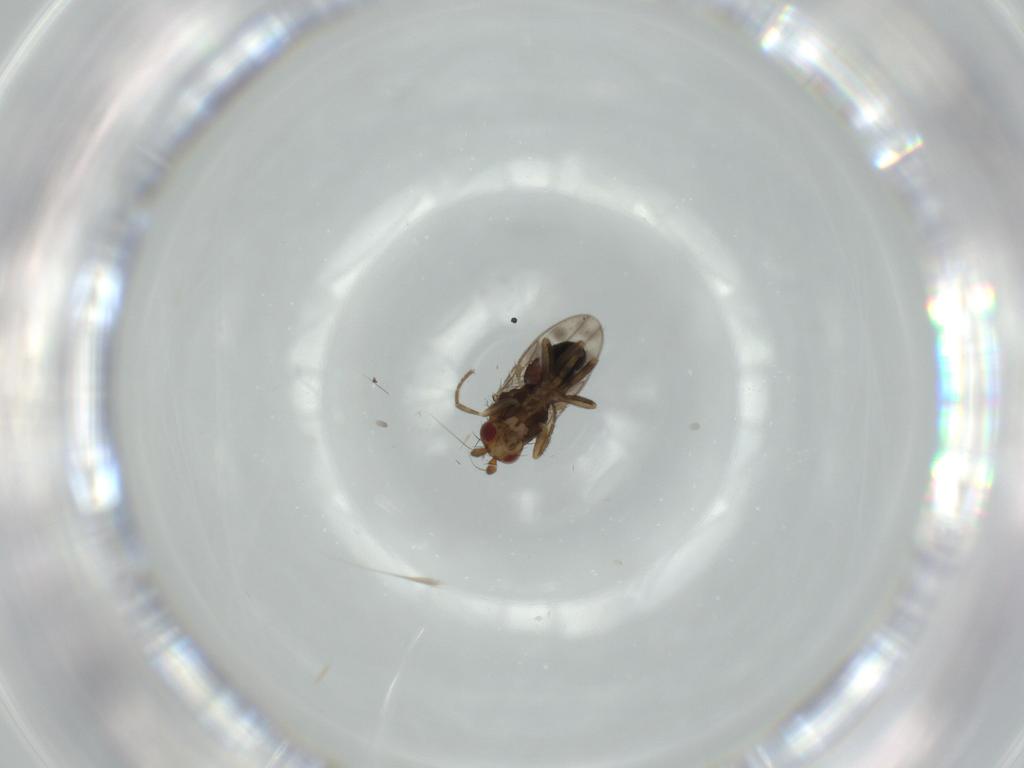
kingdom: Animalia
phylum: Arthropoda
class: Insecta
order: Diptera
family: Sphaeroceridae
